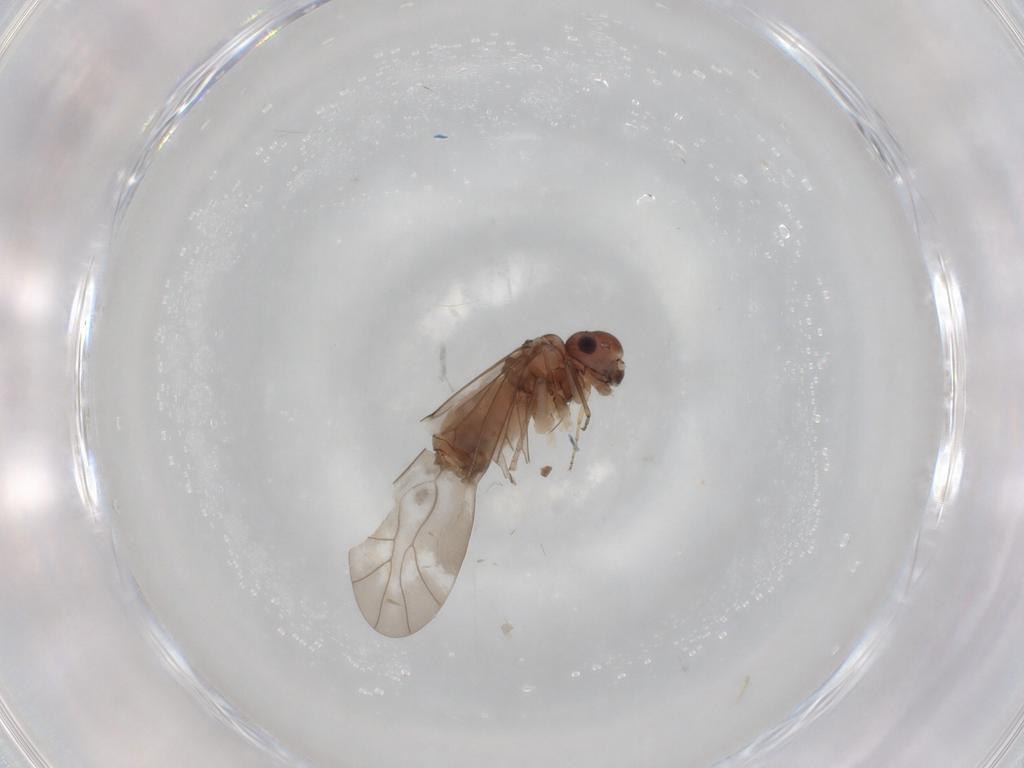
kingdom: Animalia
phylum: Arthropoda
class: Insecta
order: Psocodea
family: Peripsocidae
